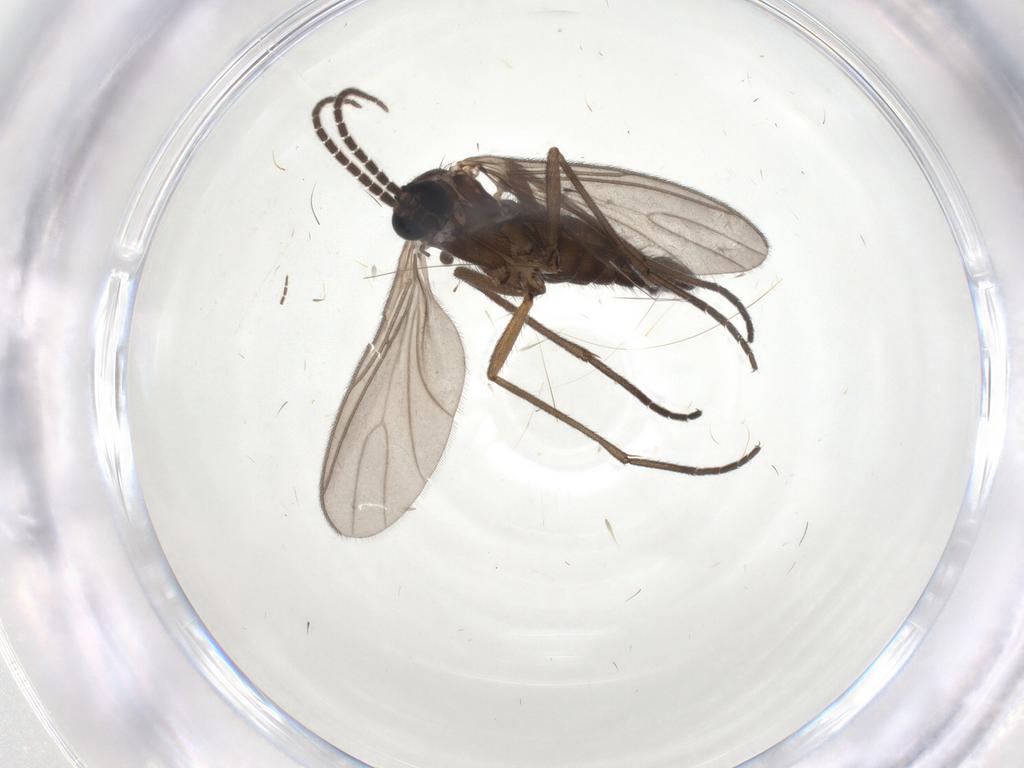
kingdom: Animalia
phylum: Arthropoda
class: Insecta
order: Diptera
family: Sciaridae
